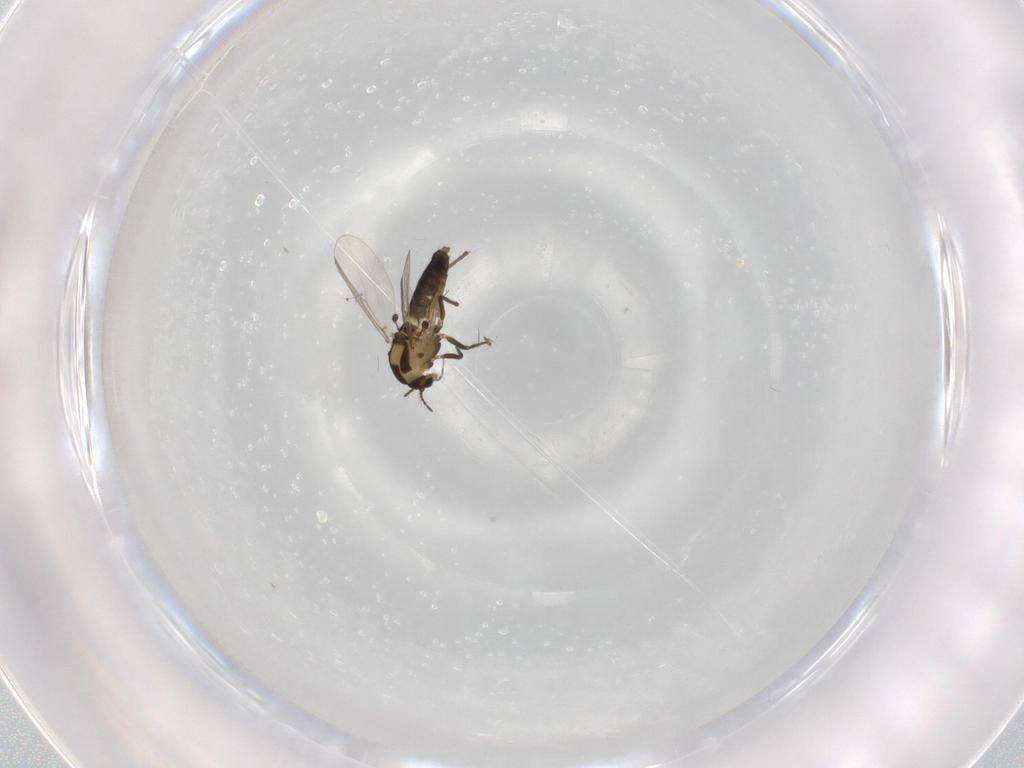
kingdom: Animalia
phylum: Arthropoda
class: Insecta
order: Diptera
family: Chironomidae
